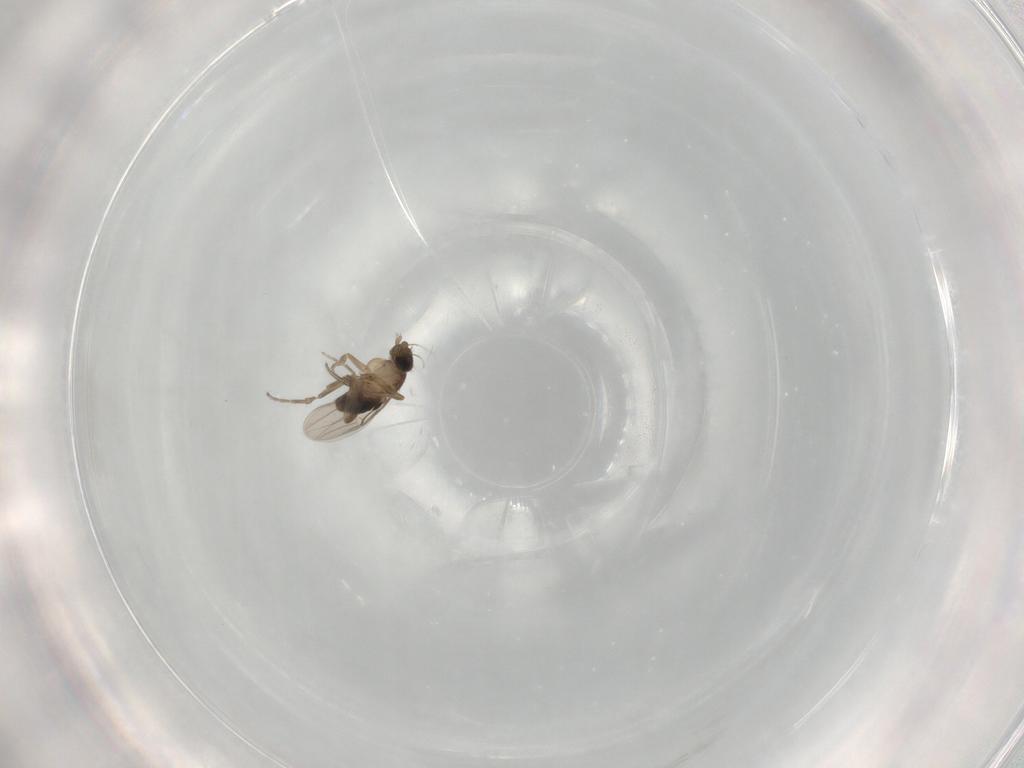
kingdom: Animalia
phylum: Arthropoda
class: Insecta
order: Diptera
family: Phoridae
